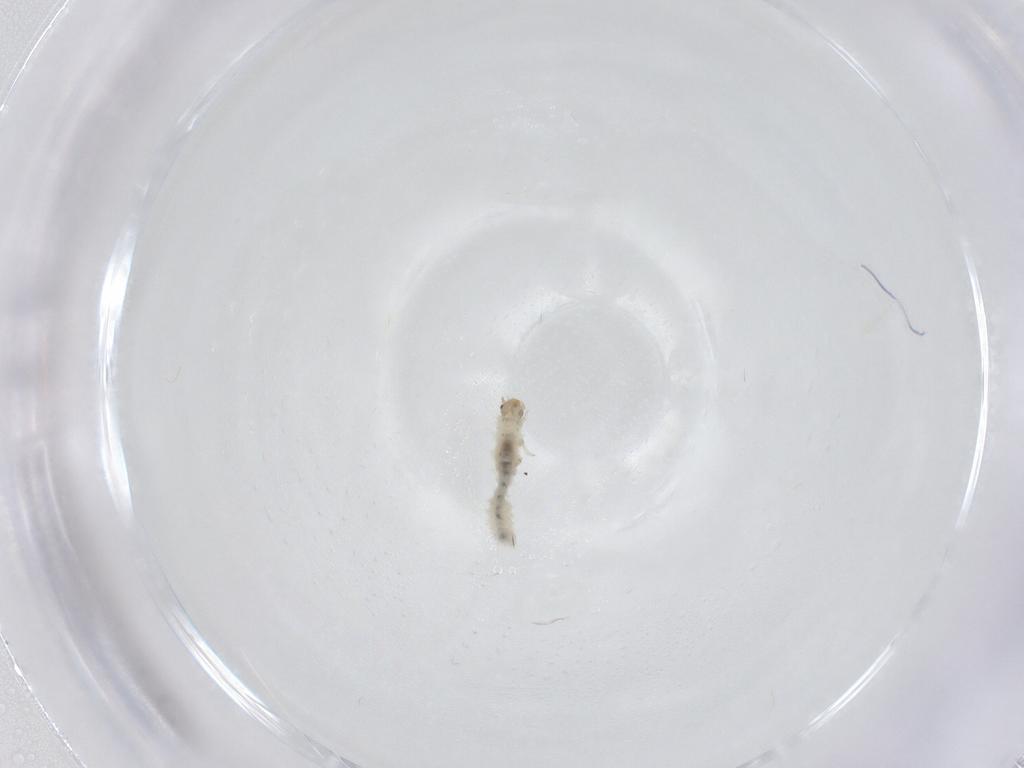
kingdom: Animalia
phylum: Arthropoda
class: Insecta
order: Coleoptera
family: Latridiidae
